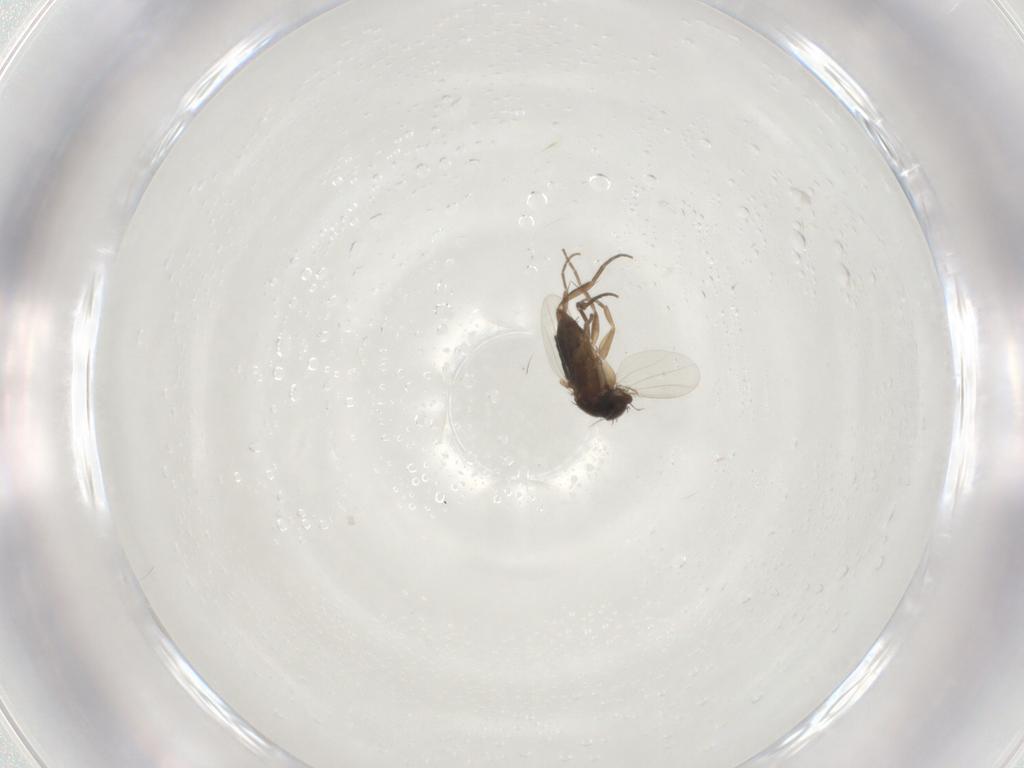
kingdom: Animalia
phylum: Arthropoda
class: Insecta
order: Diptera
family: Phoridae
